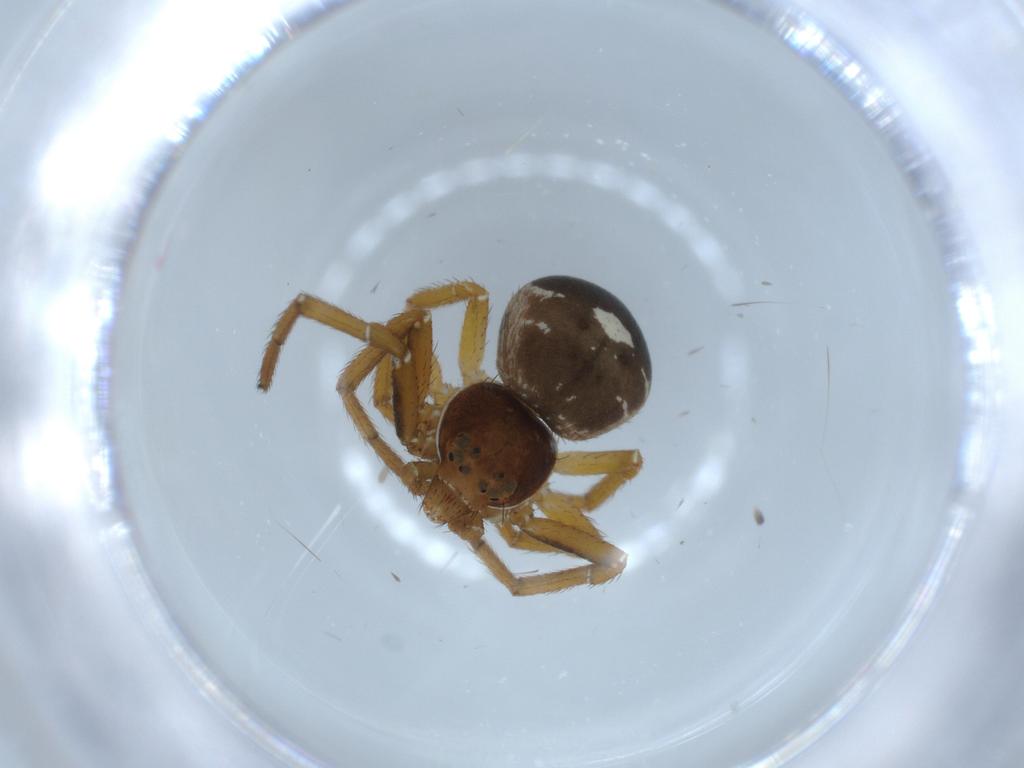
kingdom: Animalia
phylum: Arthropoda
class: Arachnida
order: Araneae
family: Thomisidae
